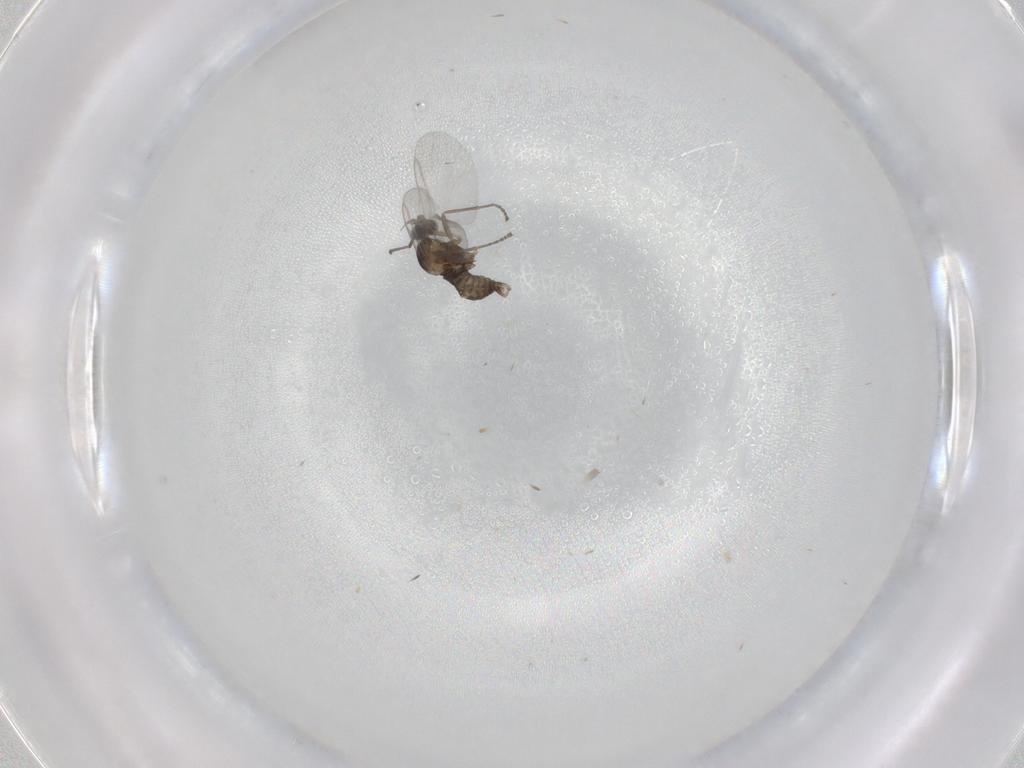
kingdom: Animalia
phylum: Arthropoda
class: Insecta
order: Diptera
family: Cecidomyiidae
